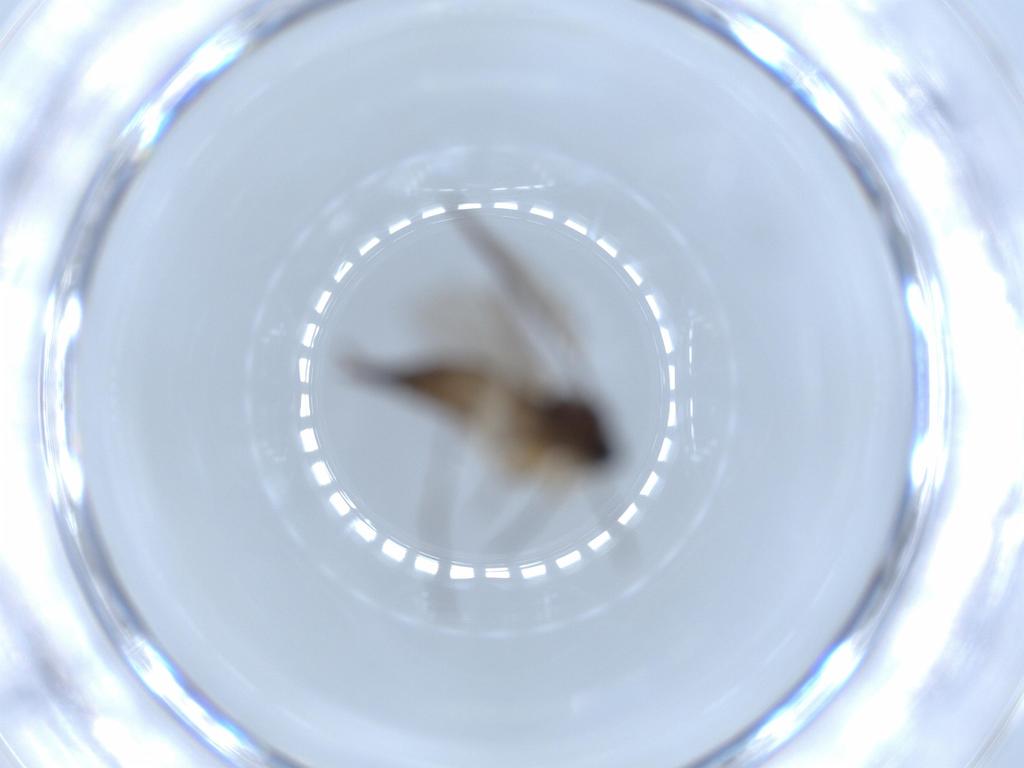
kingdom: Animalia
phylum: Arthropoda
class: Insecta
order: Diptera
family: Sciaridae
